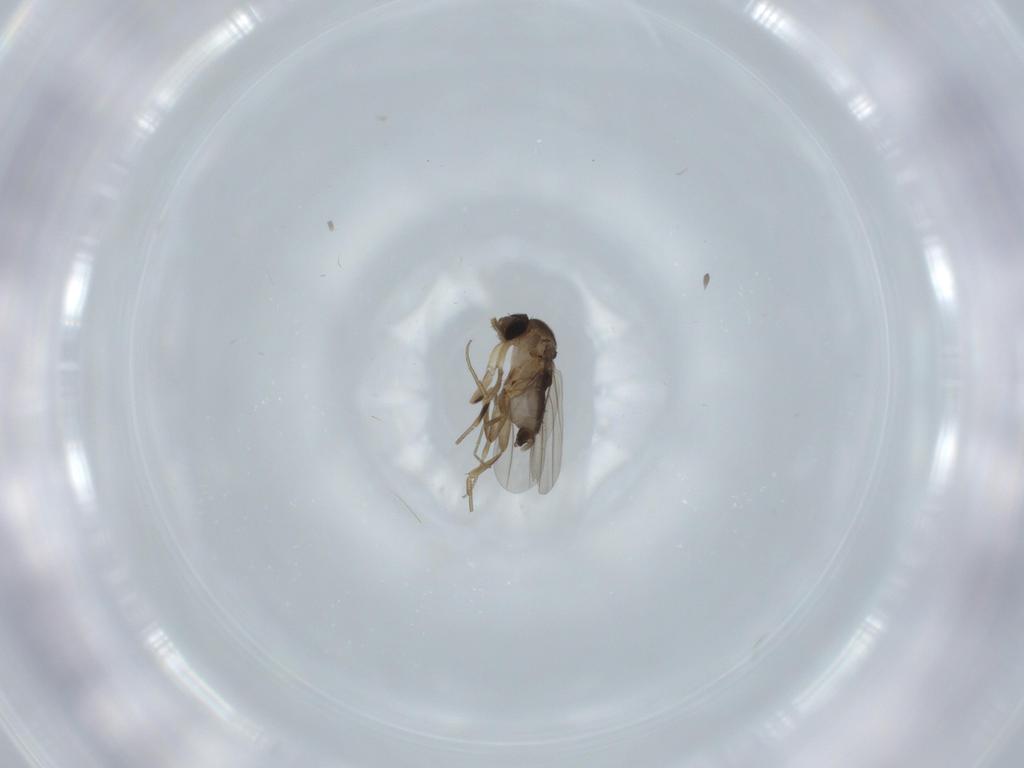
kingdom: Animalia
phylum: Arthropoda
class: Insecta
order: Diptera
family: Phoridae
